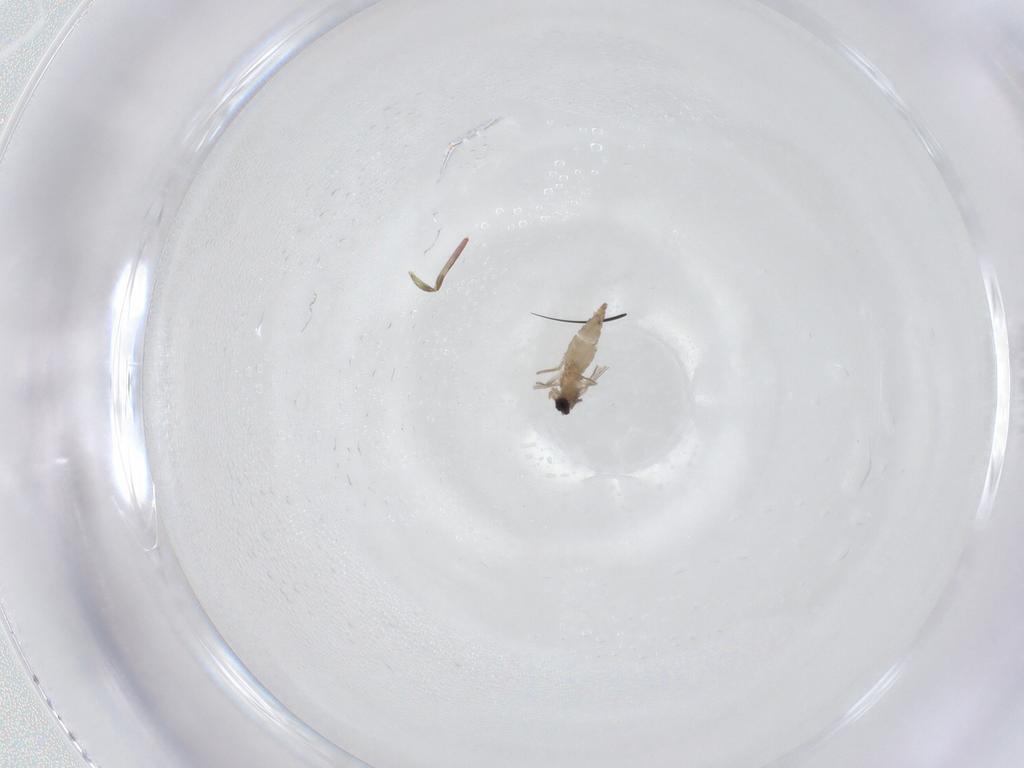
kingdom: Animalia
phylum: Arthropoda
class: Insecta
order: Diptera
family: Cecidomyiidae
